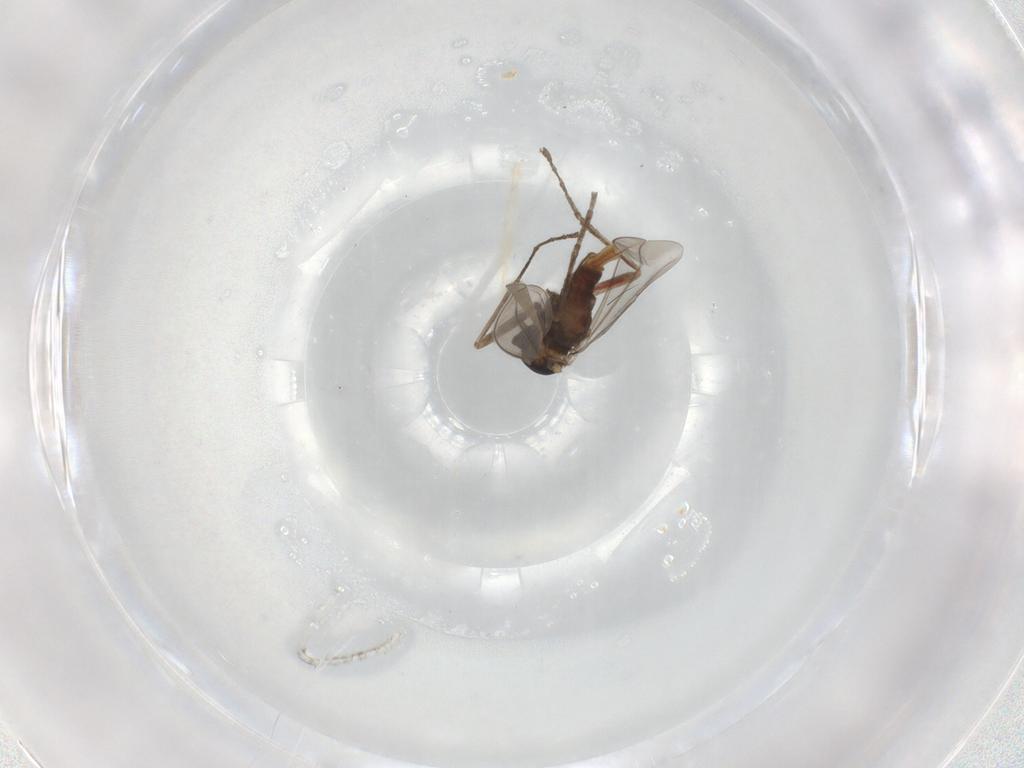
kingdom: Animalia
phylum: Arthropoda
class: Insecta
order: Diptera
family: Cecidomyiidae
